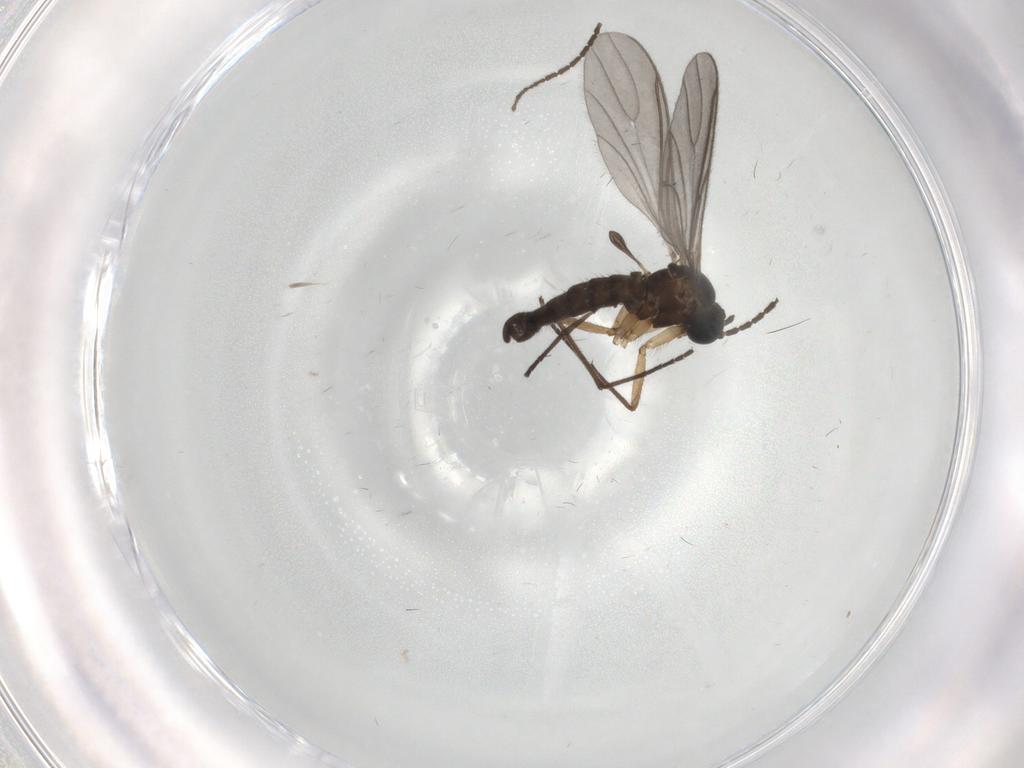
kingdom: Animalia
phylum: Arthropoda
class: Insecta
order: Diptera
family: Sciaridae
